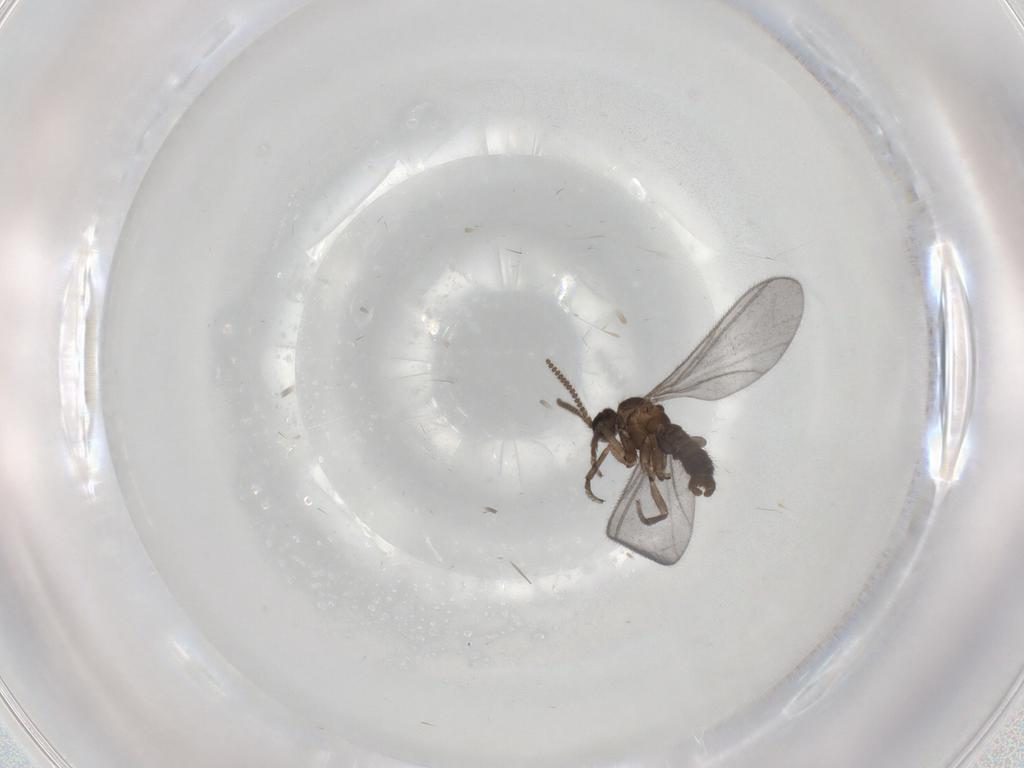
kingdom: Animalia
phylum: Arthropoda
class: Insecta
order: Diptera
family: Sciaridae
